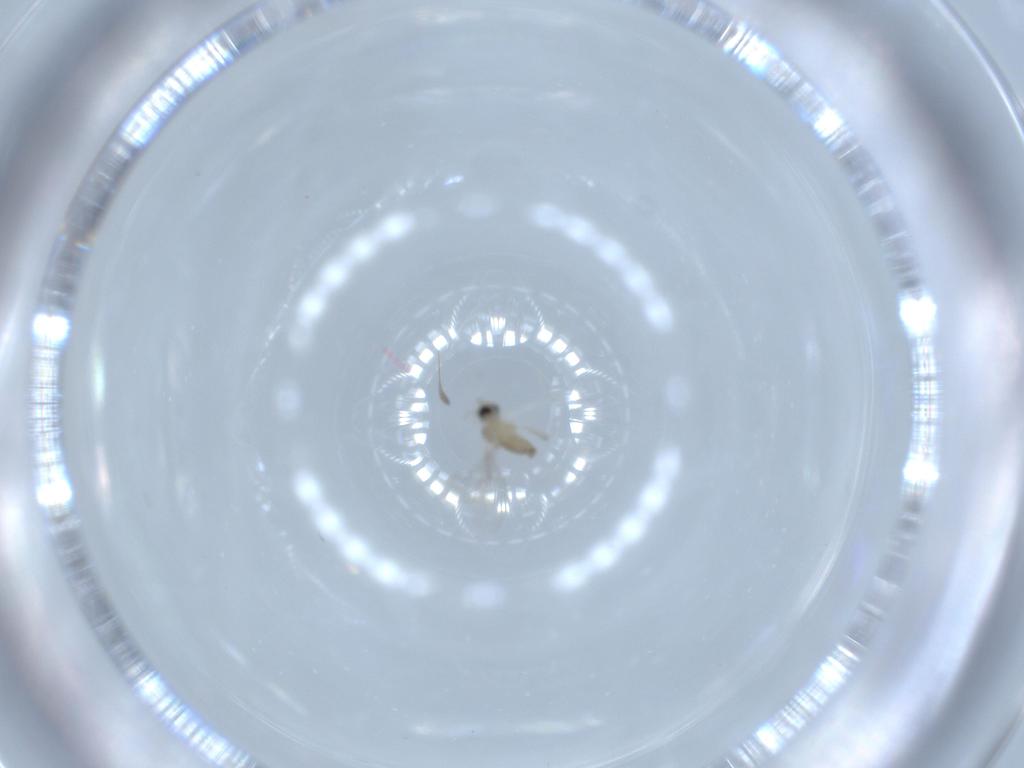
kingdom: Animalia
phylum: Arthropoda
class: Insecta
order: Diptera
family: Cecidomyiidae
